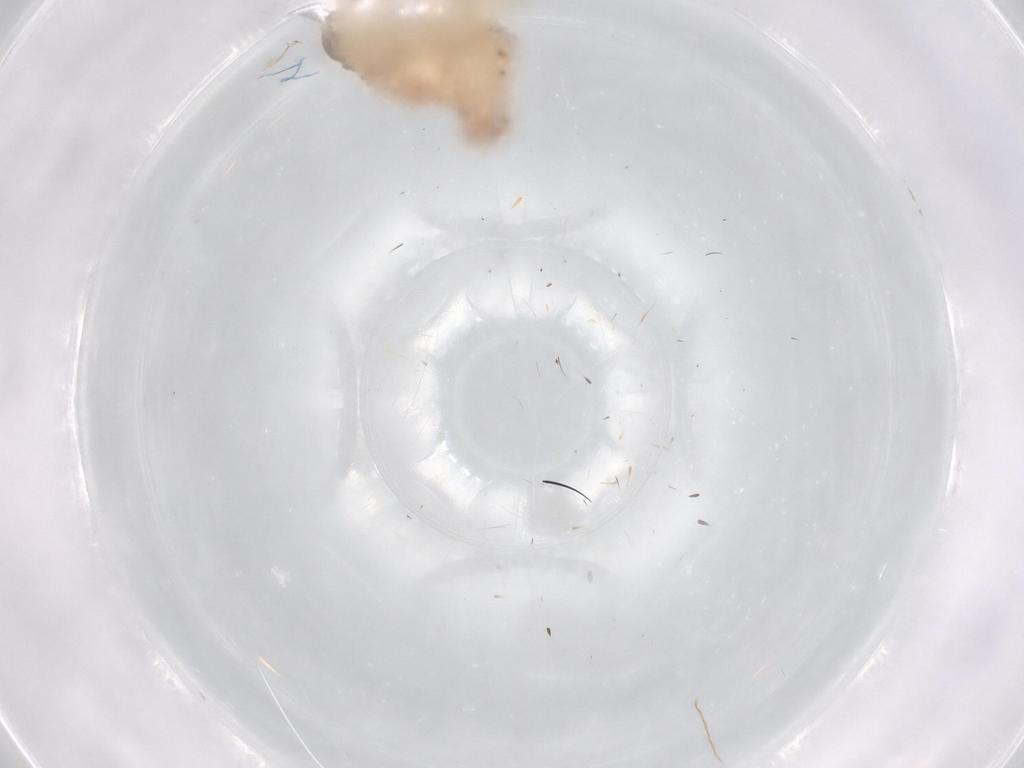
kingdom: Animalia
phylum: Arthropoda
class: Insecta
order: Hemiptera
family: Nogodinidae
